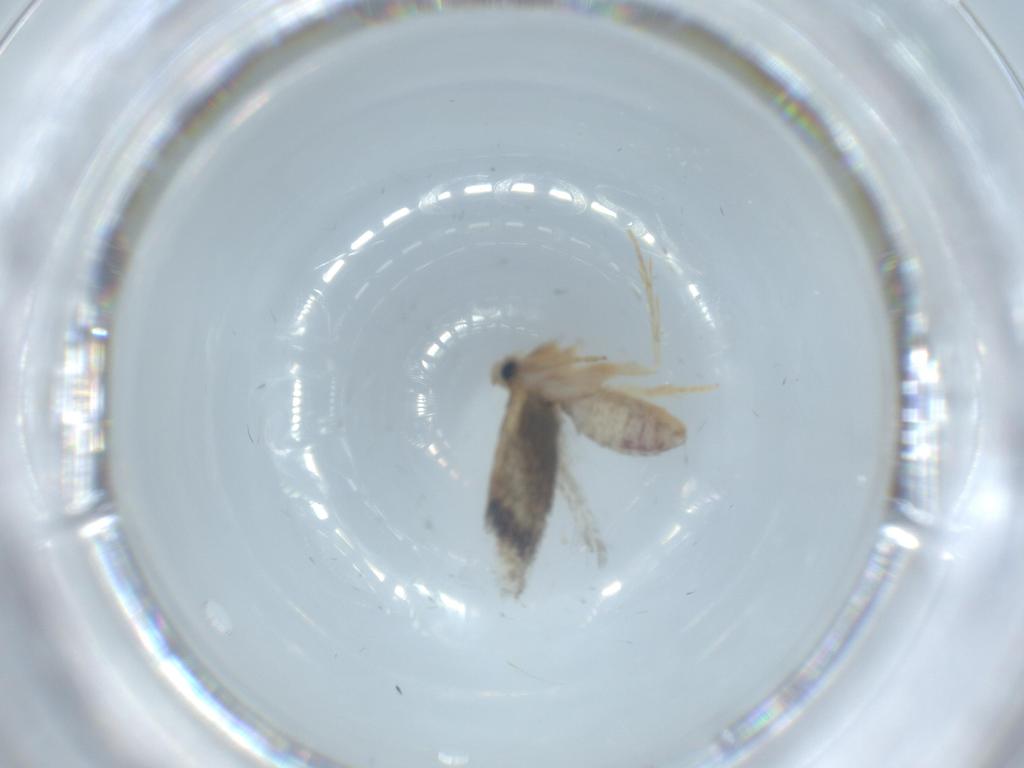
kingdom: Animalia
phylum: Arthropoda
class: Insecta
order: Lepidoptera
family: Nepticulidae
